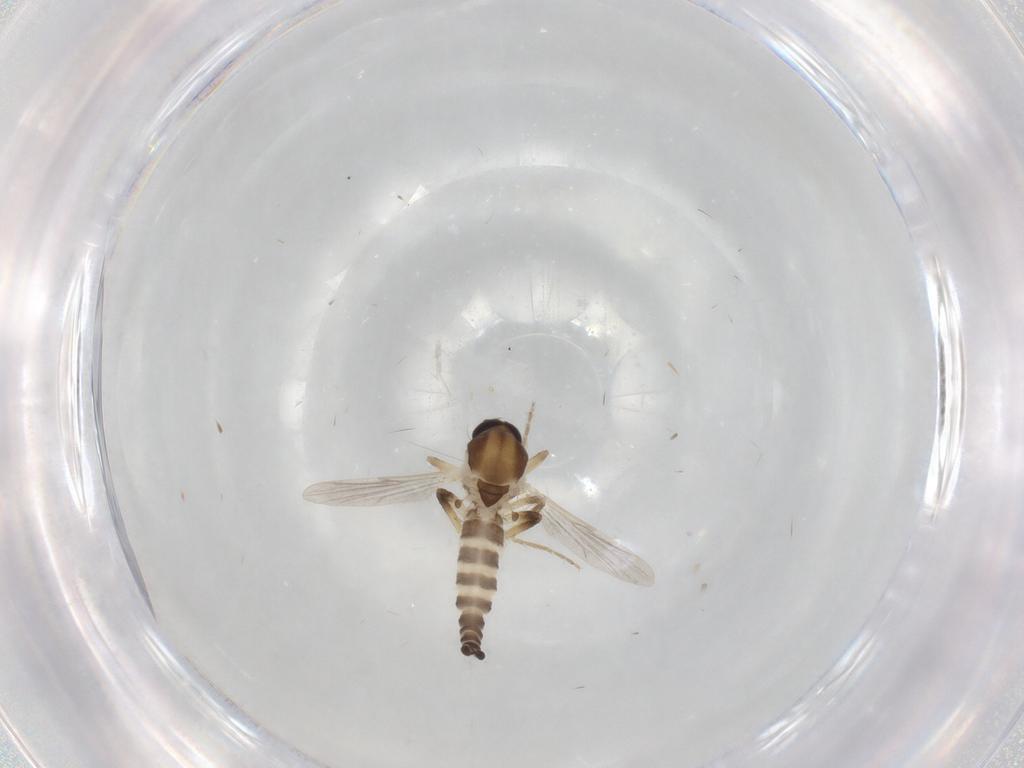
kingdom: Animalia
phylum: Arthropoda
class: Insecta
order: Diptera
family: Ceratopogonidae
